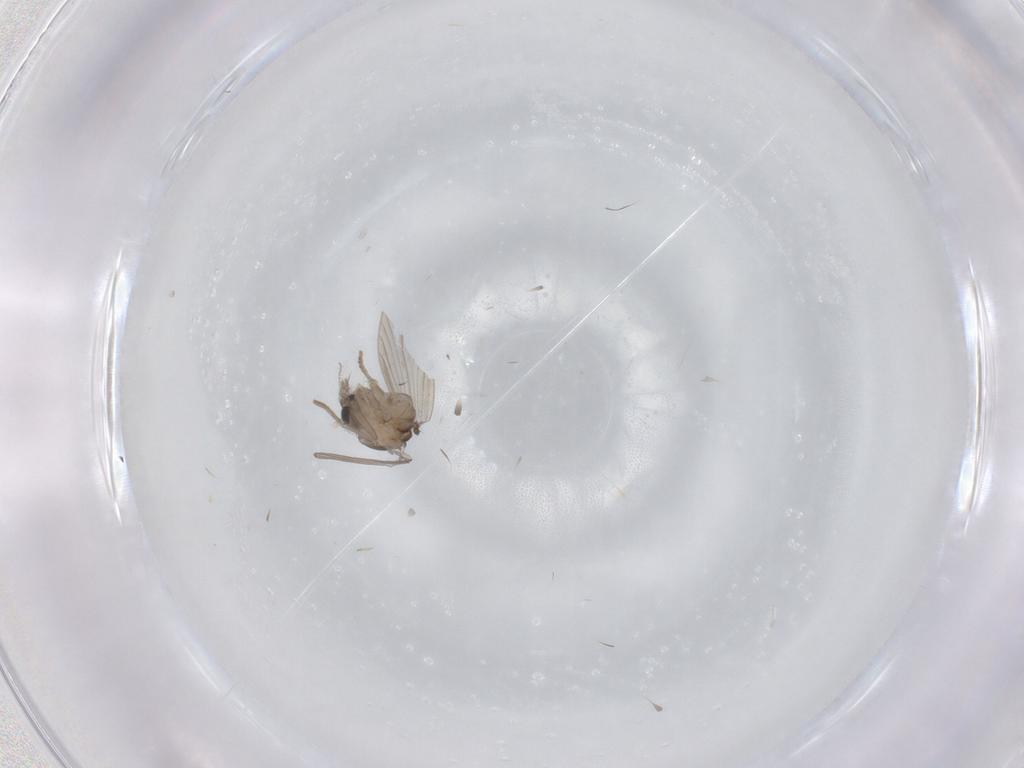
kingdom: Animalia
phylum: Arthropoda
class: Insecta
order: Diptera
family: Psychodidae
